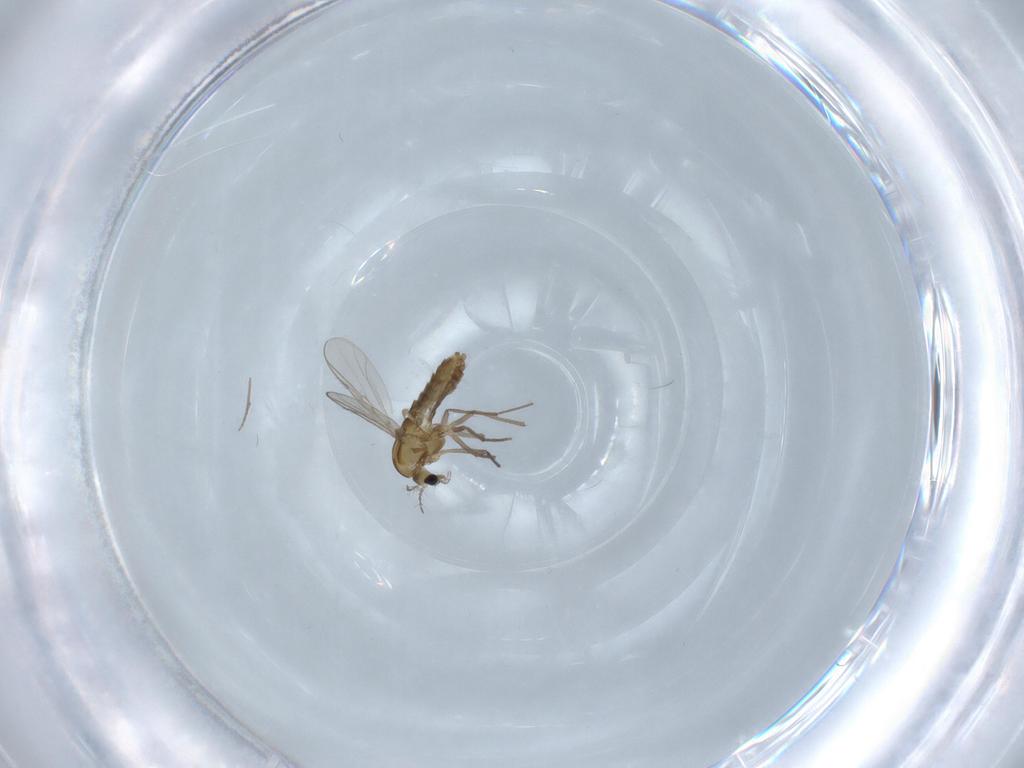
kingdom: Animalia
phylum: Arthropoda
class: Insecta
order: Diptera
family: Chironomidae
